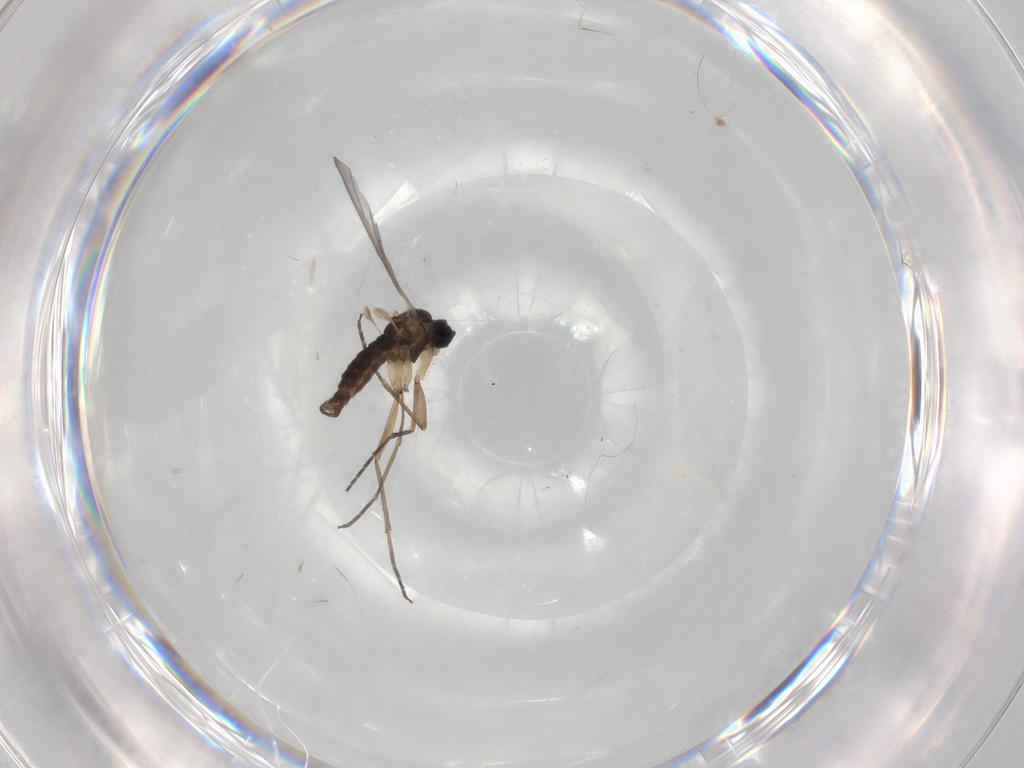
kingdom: Animalia
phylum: Arthropoda
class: Insecta
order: Diptera
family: Sciaridae
